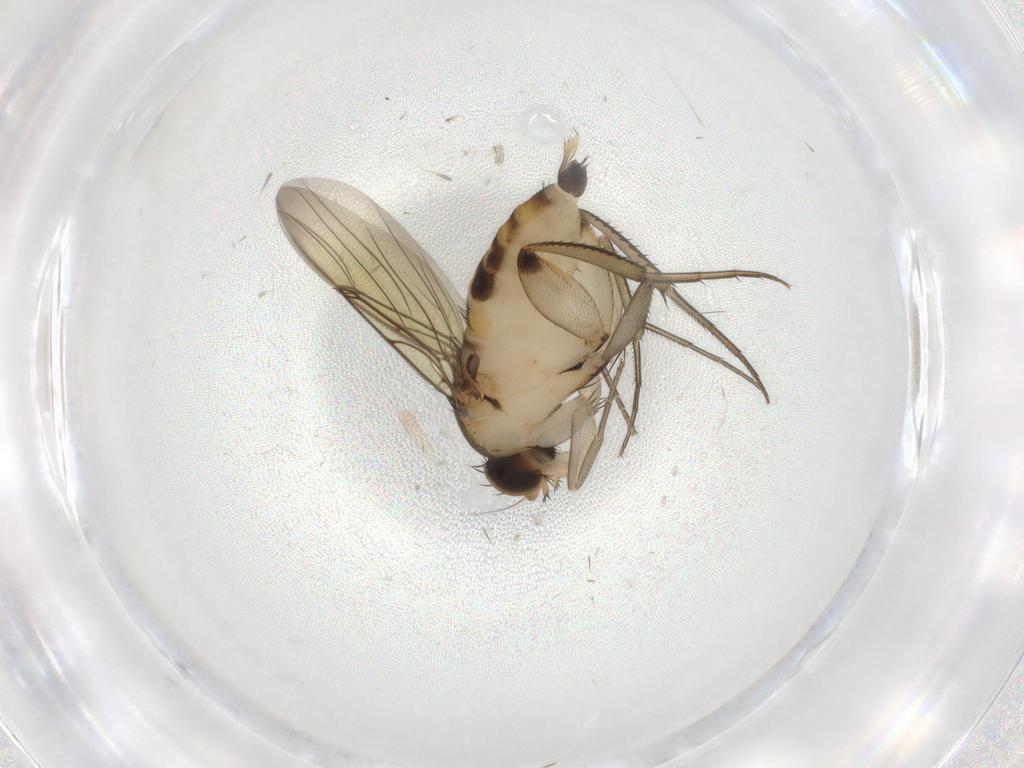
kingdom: Animalia
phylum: Arthropoda
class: Insecta
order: Diptera
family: Phoridae
